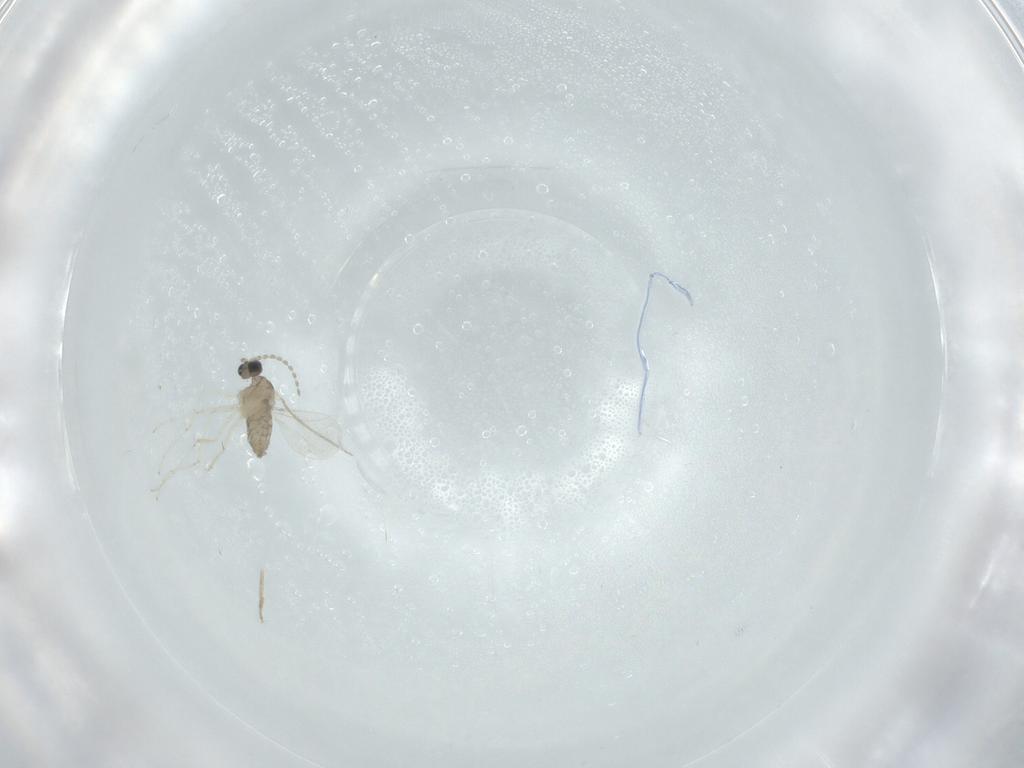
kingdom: Animalia
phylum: Arthropoda
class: Insecta
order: Diptera
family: Cecidomyiidae
